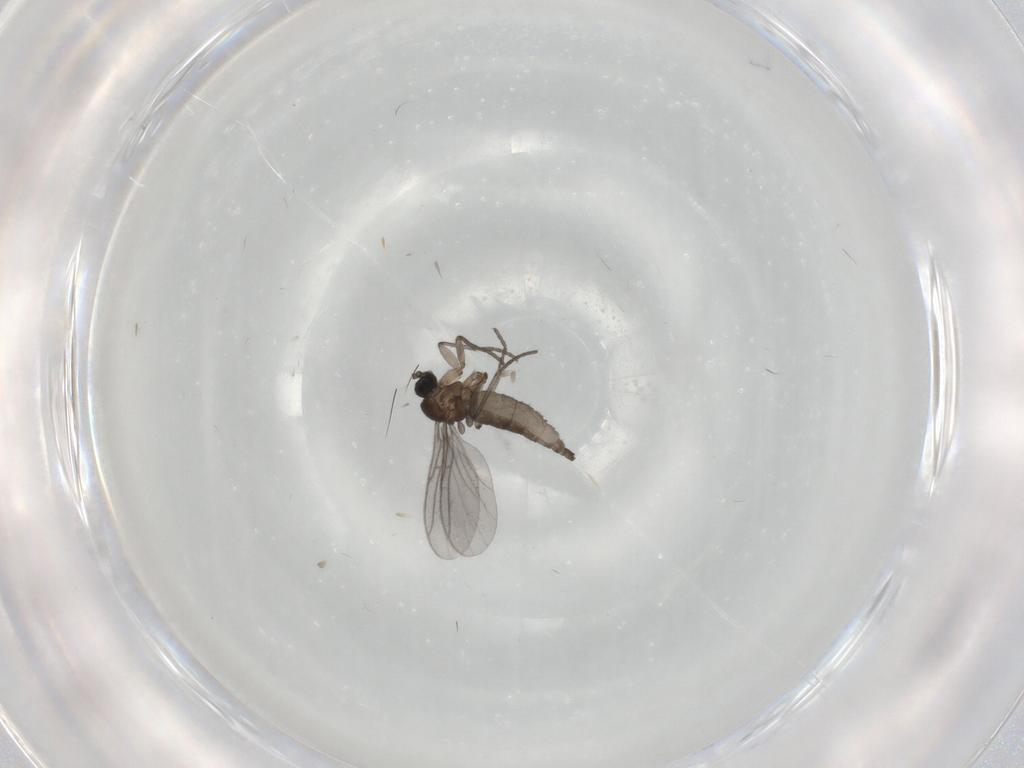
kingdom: Animalia
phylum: Arthropoda
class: Insecta
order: Diptera
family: Sciaridae
